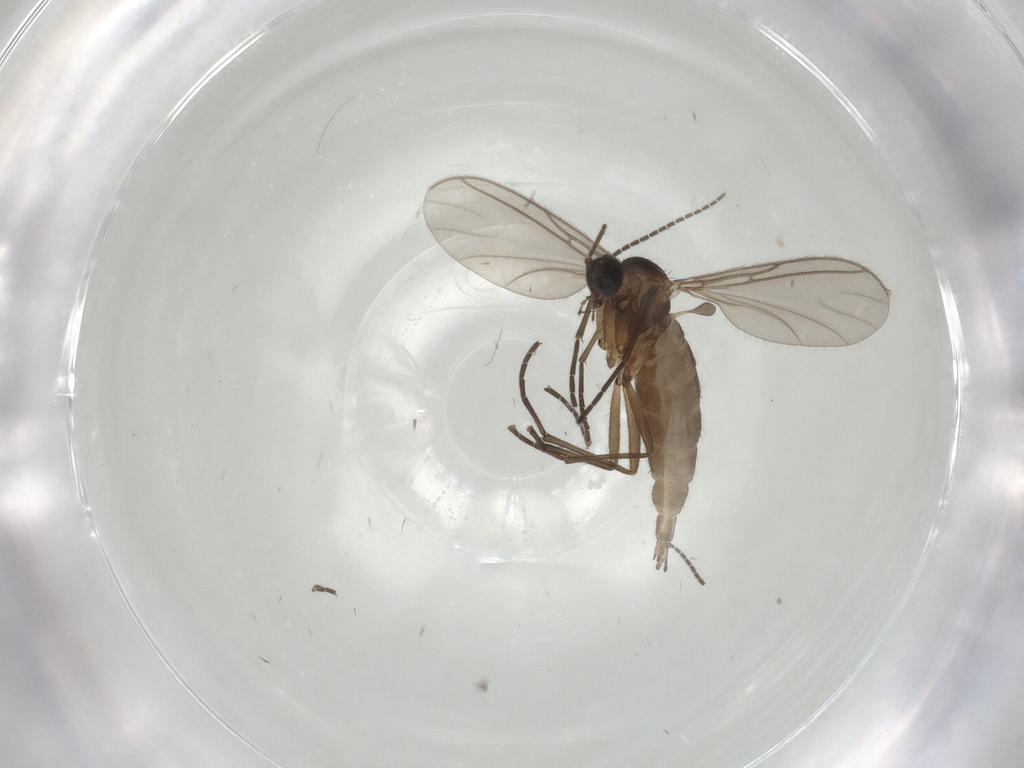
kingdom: Animalia
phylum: Arthropoda
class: Insecta
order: Diptera
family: Sciaridae
